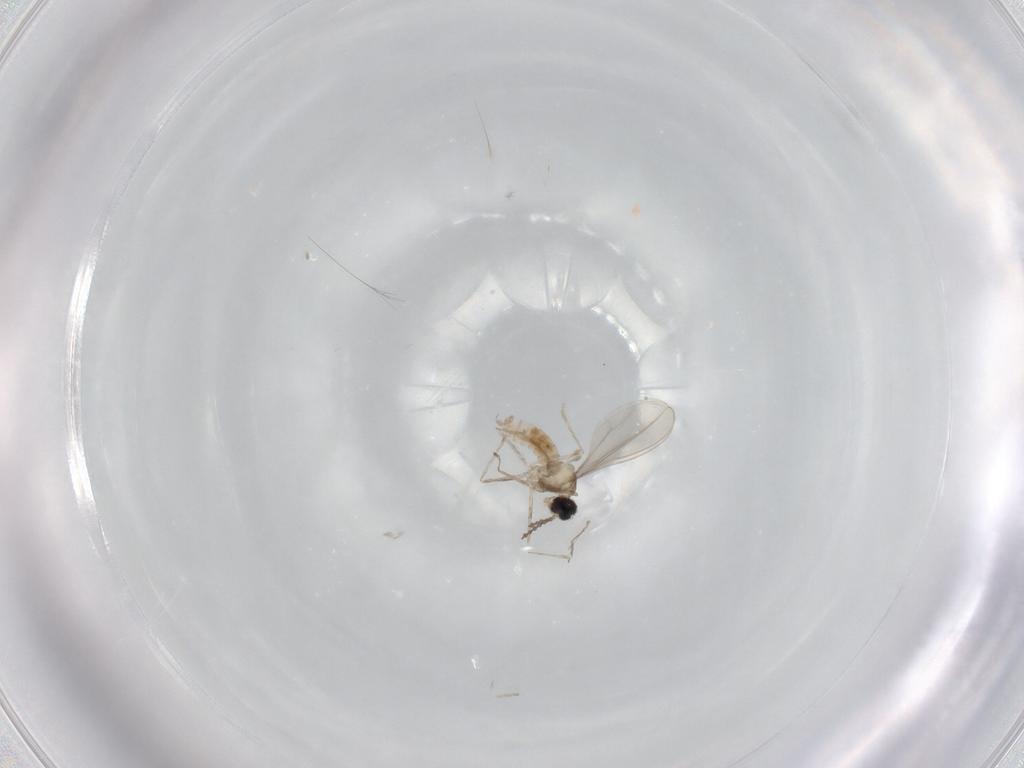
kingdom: Animalia
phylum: Arthropoda
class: Insecta
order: Diptera
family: Cecidomyiidae
